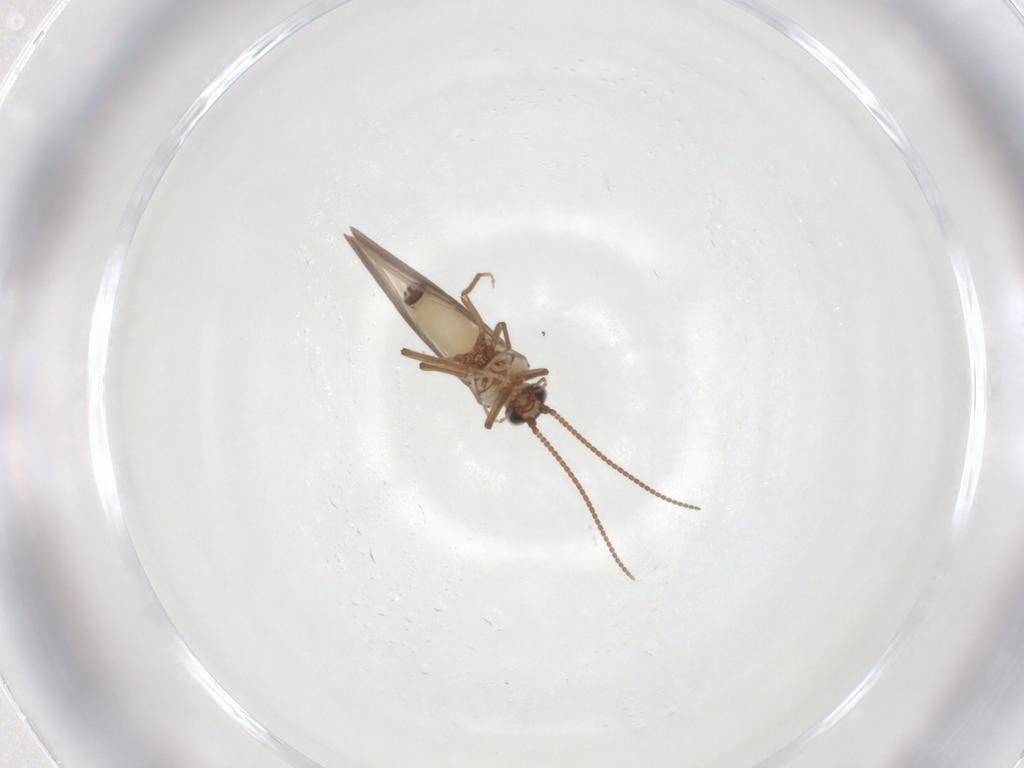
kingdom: Animalia
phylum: Arthropoda
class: Insecta
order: Neuroptera
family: Coniopterygidae
